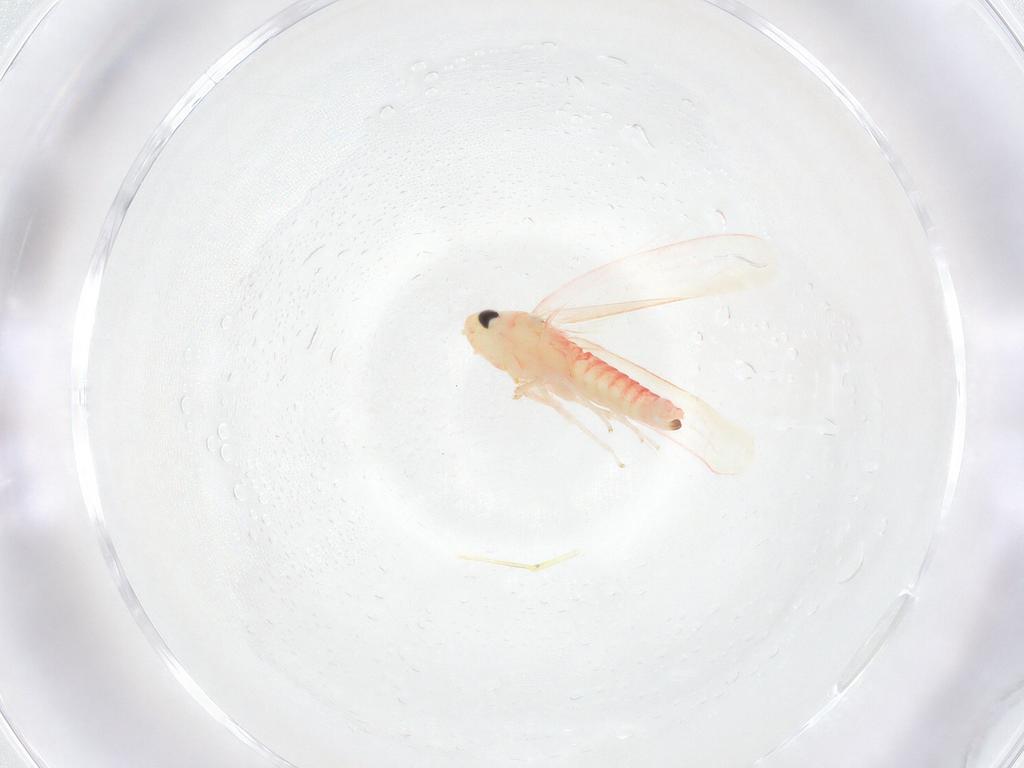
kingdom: Animalia
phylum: Arthropoda
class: Insecta
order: Hemiptera
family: Cicadellidae
